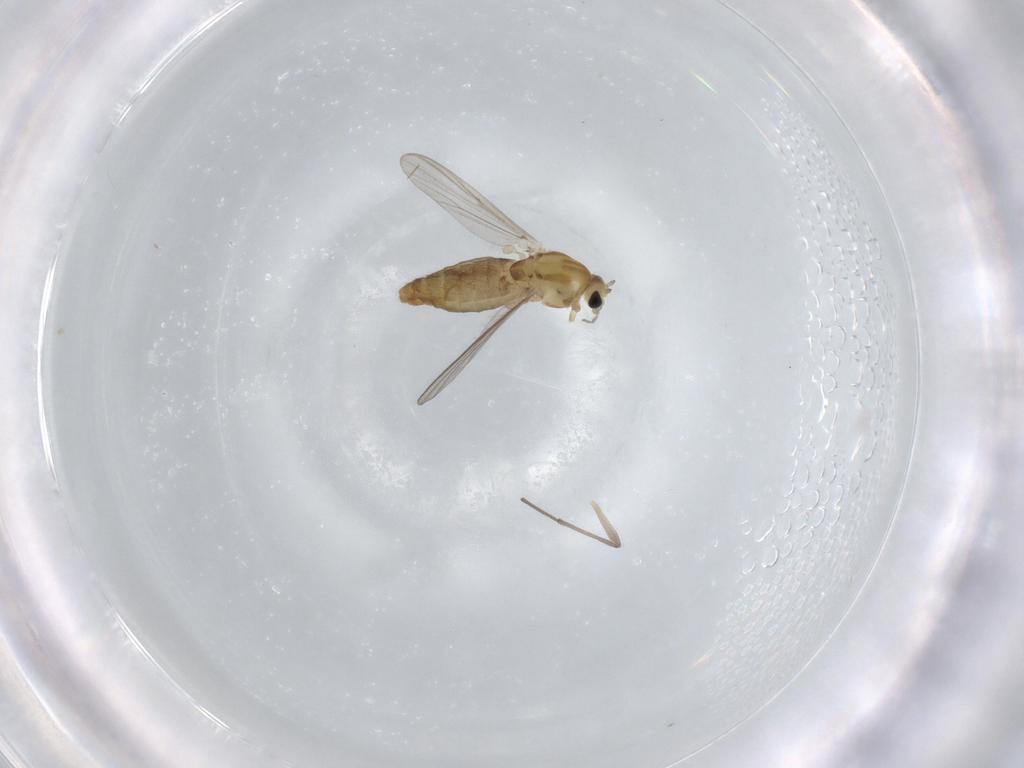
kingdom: Animalia
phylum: Arthropoda
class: Insecta
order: Diptera
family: Chironomidae
